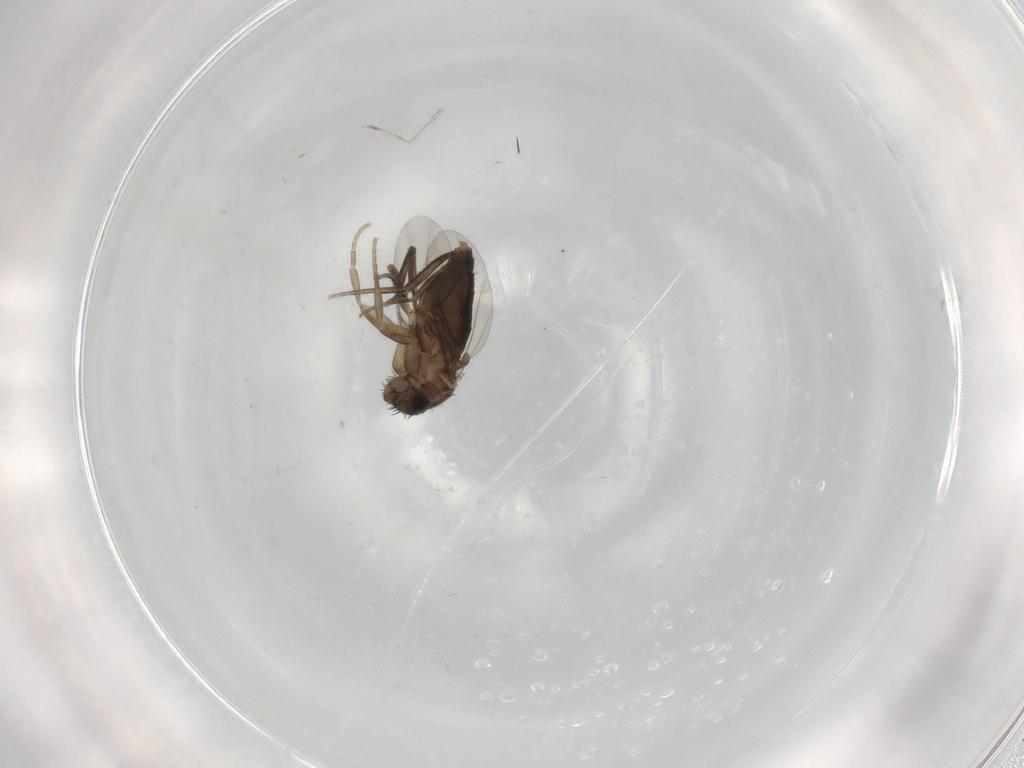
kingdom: Animalia
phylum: Arthropoda
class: Insecta
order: Diptera
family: Phoridae
